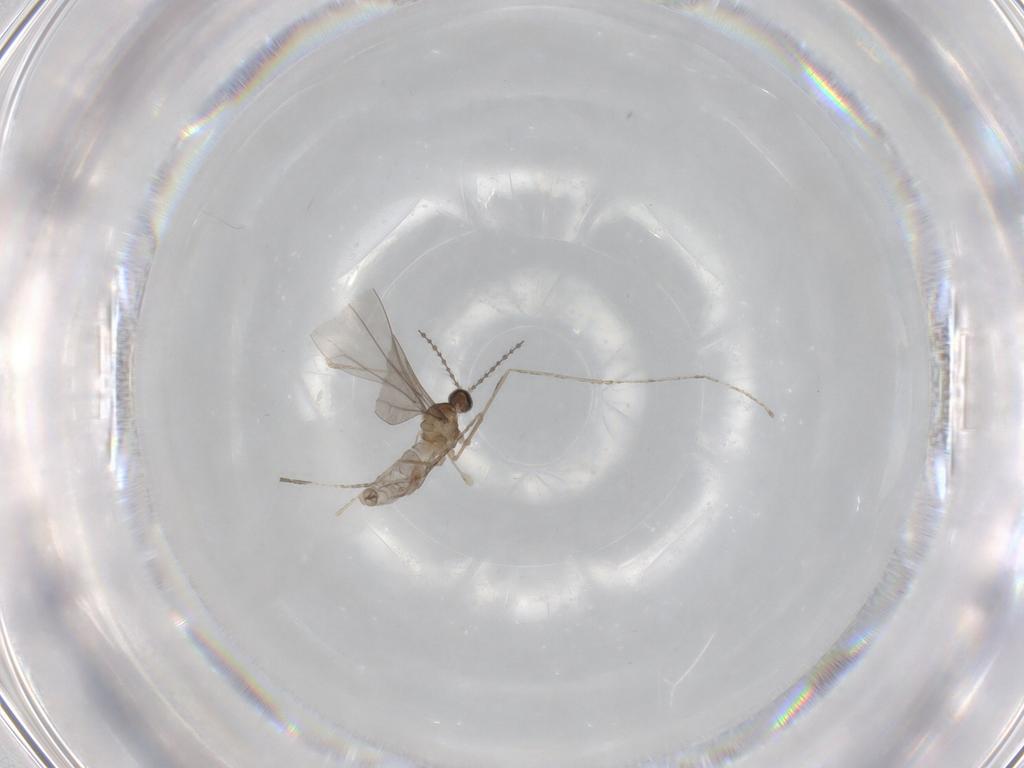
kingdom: Animalia
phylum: Arthropoda
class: Insecta
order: Diptera
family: Cecidomyiidae
